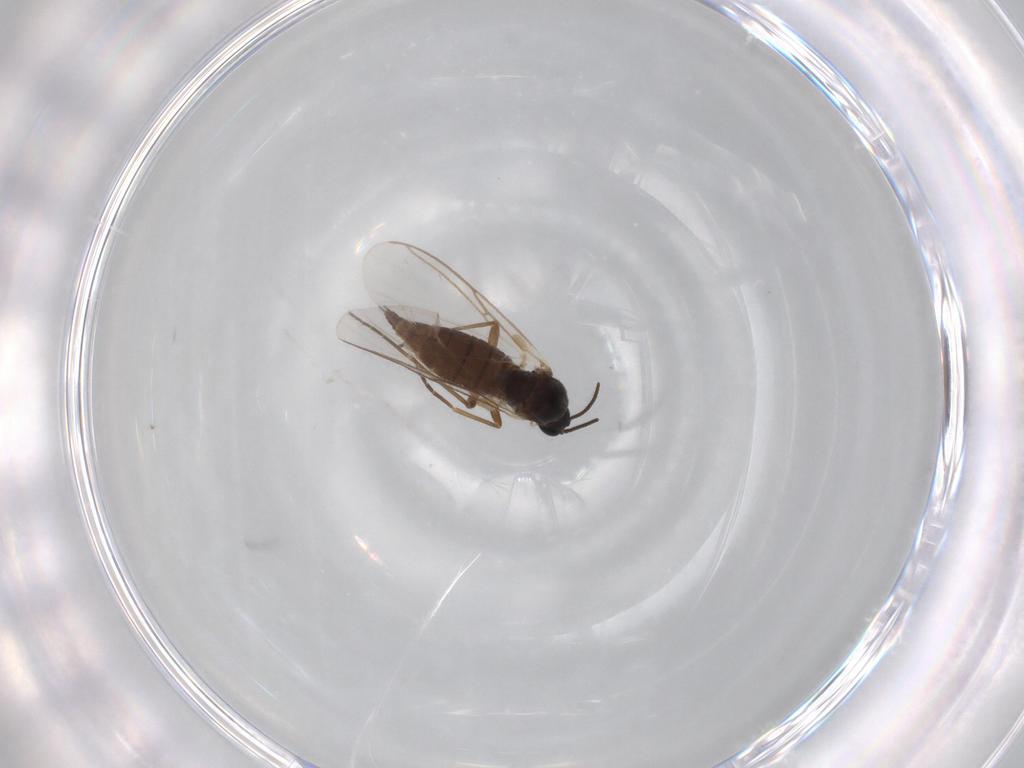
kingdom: Animalia
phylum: Arthropoda
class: Insecta
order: Diptera
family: Sciaridae
